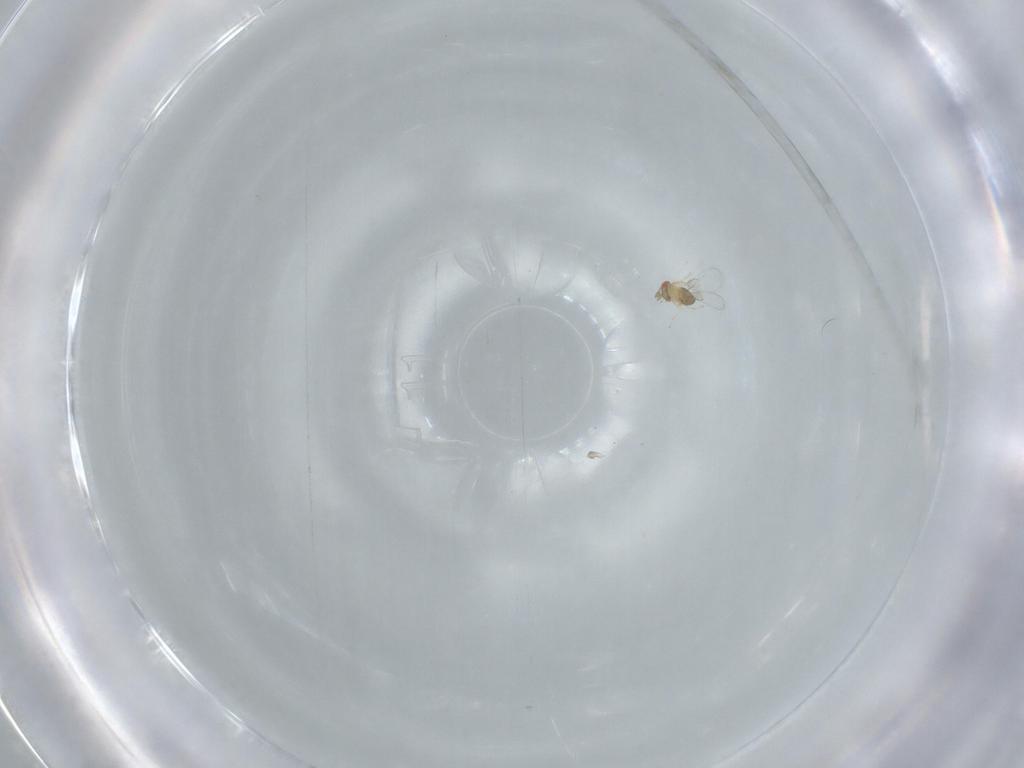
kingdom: Animalia
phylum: Arthropoda
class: Insecta
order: Hymenoptera
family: Trichogrammatidae
